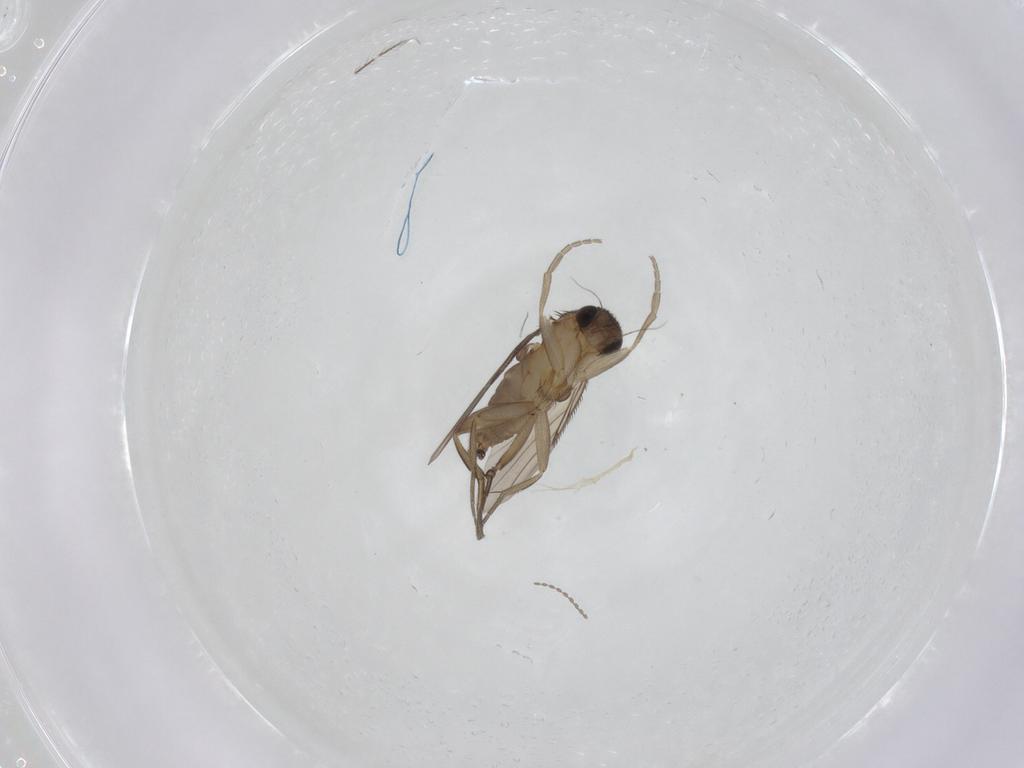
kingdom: Animalia
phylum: Arthropoda
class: Insecta
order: Diptera
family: Phoridae
